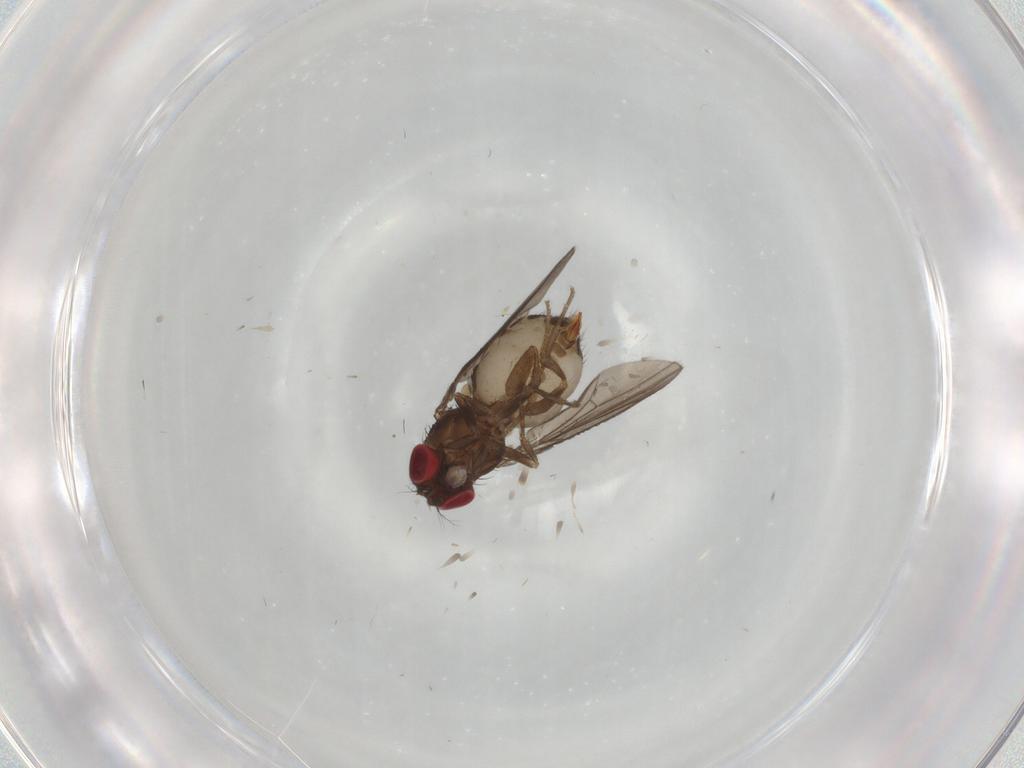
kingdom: Animalia
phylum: Arthropoda
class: Insecta
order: Diptera
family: Drosophilidae
